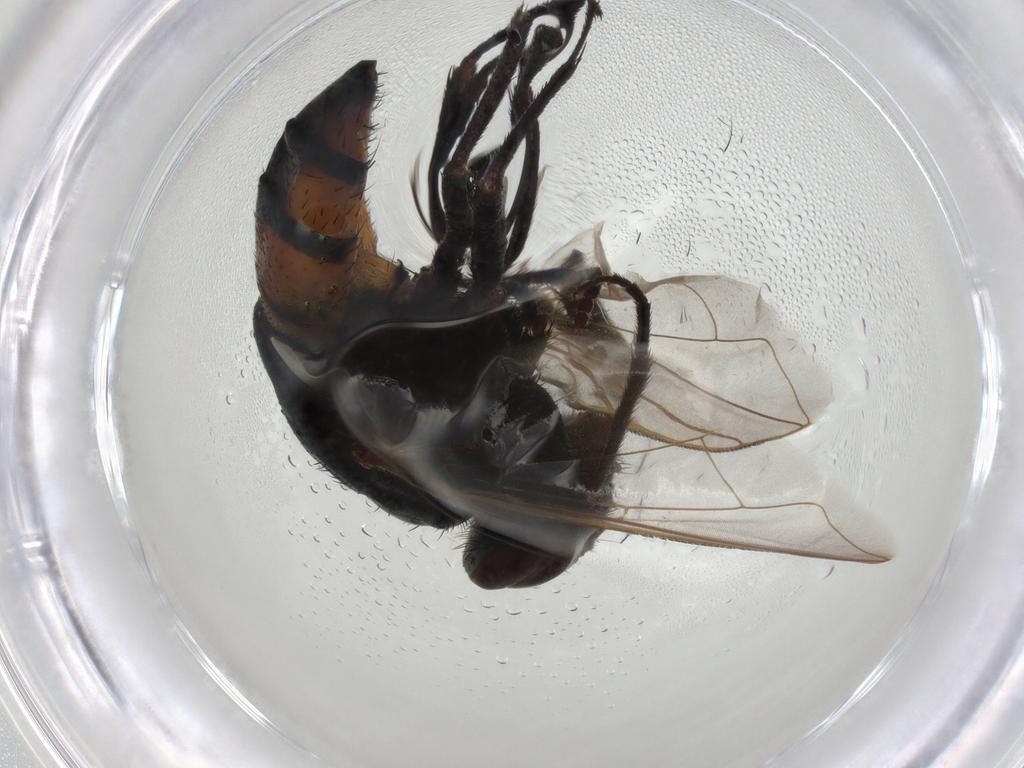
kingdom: Animalia
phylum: Arthropoda
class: Insecta
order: Diptera
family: Muscidae
